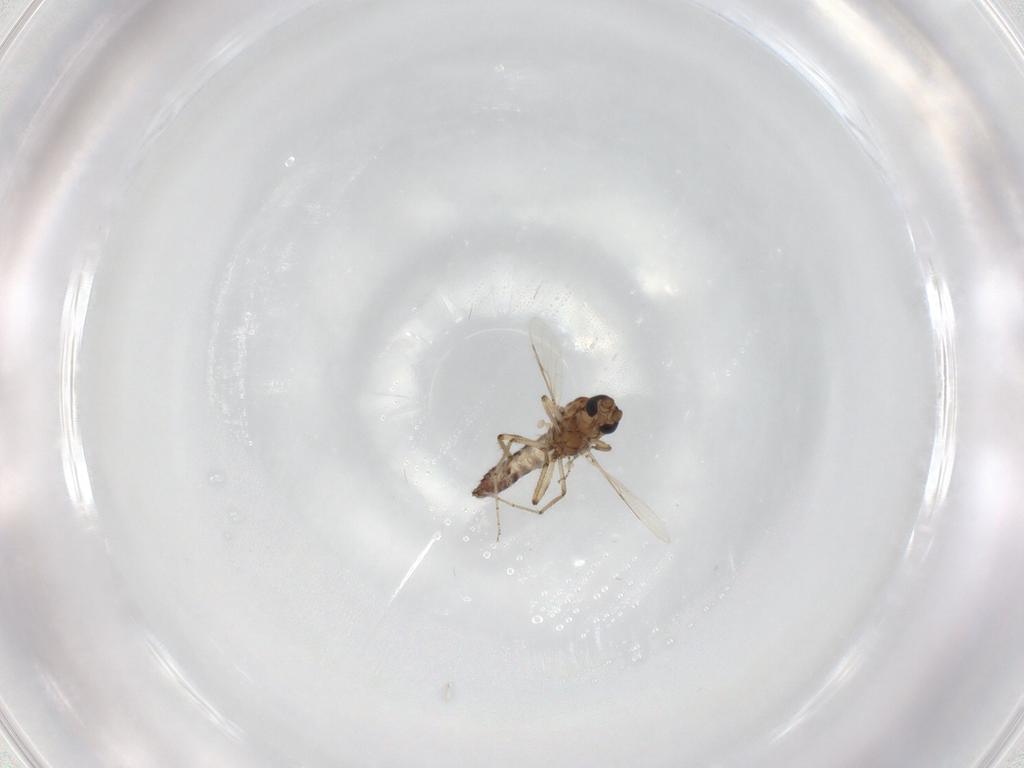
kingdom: Animalia
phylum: Arthropoda
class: Insecta
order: Diptera
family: Ceratopogonidae
